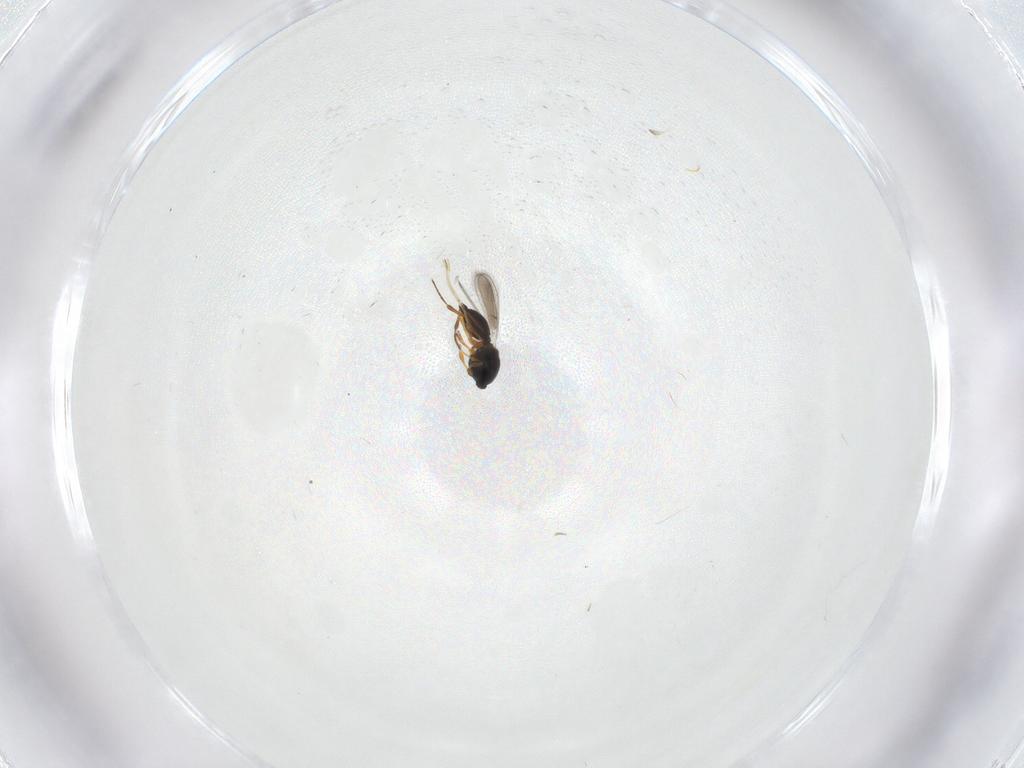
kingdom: Animalia
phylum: Arthropoda
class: Insecta
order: Hymenoptera
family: Platygastridae
